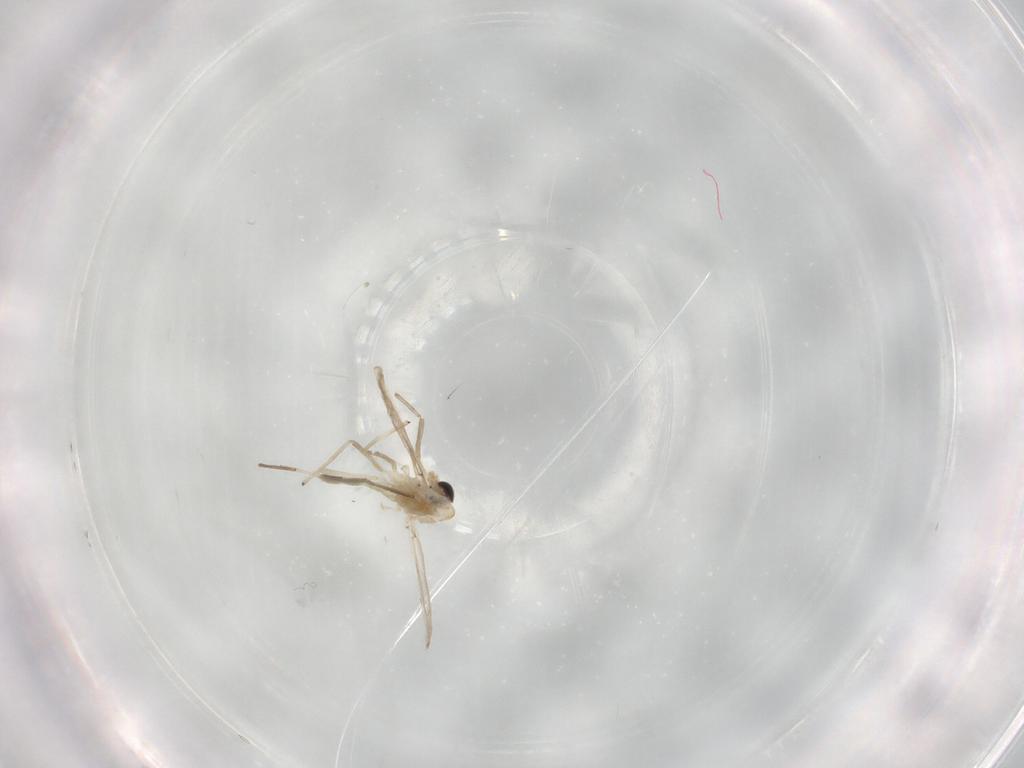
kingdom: Animalia
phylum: Arthropoda
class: Insecta
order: Diptera
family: Chironomidae
